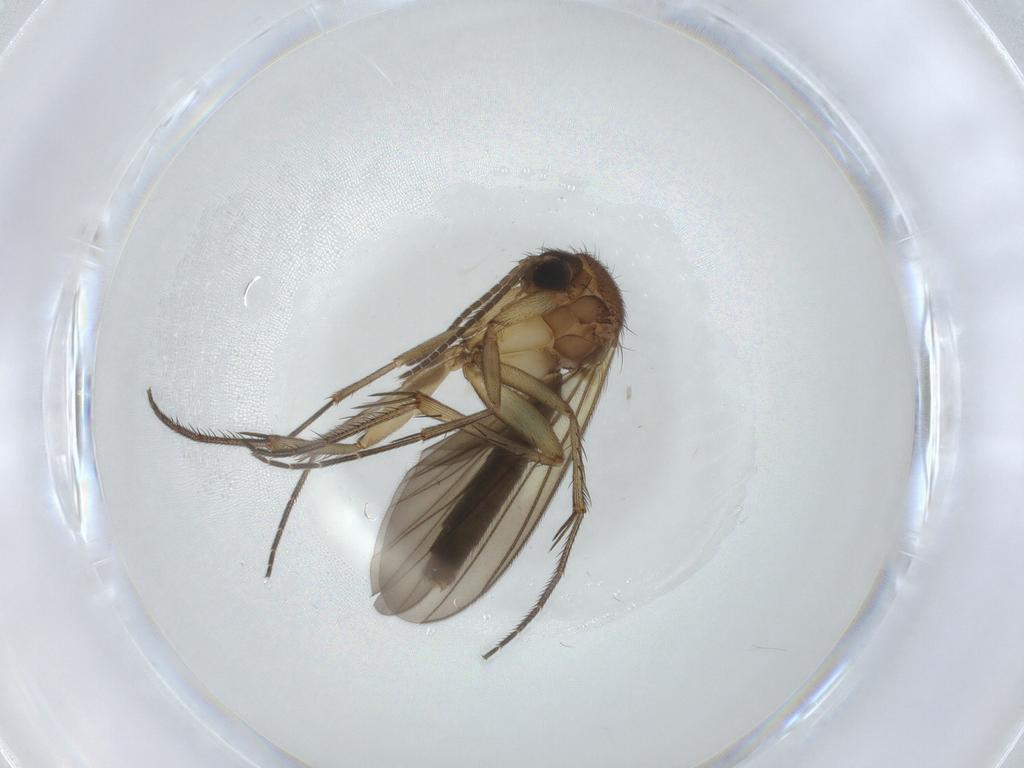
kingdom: Animalia
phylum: Arthropoda
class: Insecta
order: Diptera
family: Mycetophilidae
